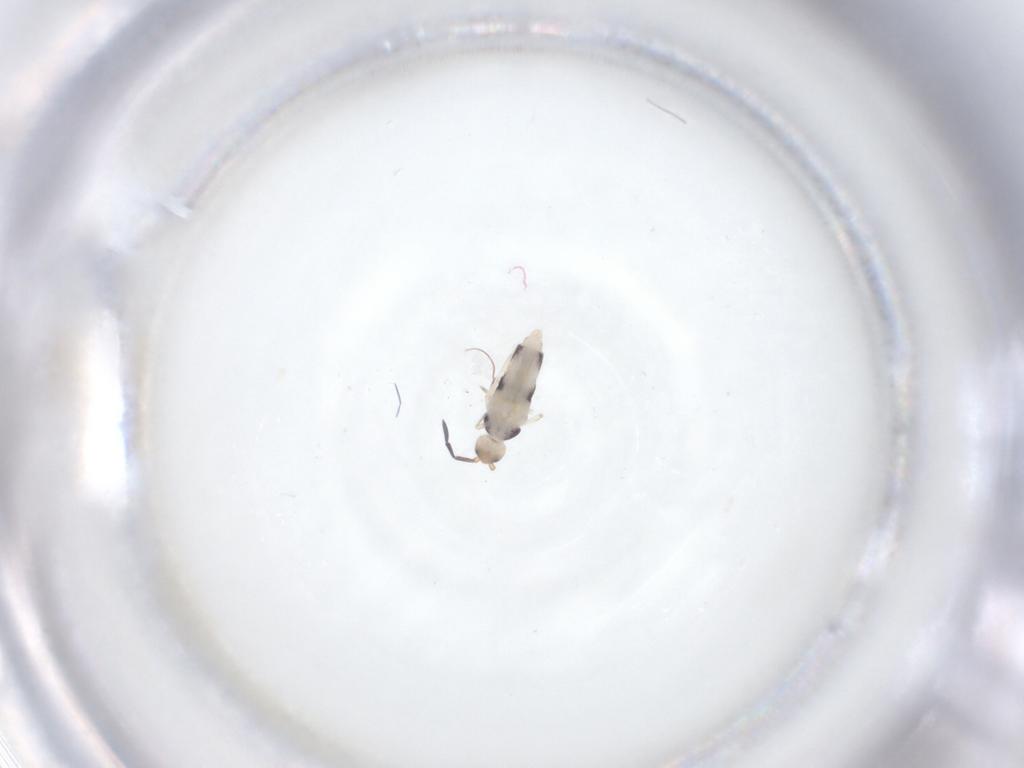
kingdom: Animalia
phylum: Arthropoda
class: Collembola
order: Entomobryomorpha
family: Entomobryidae
